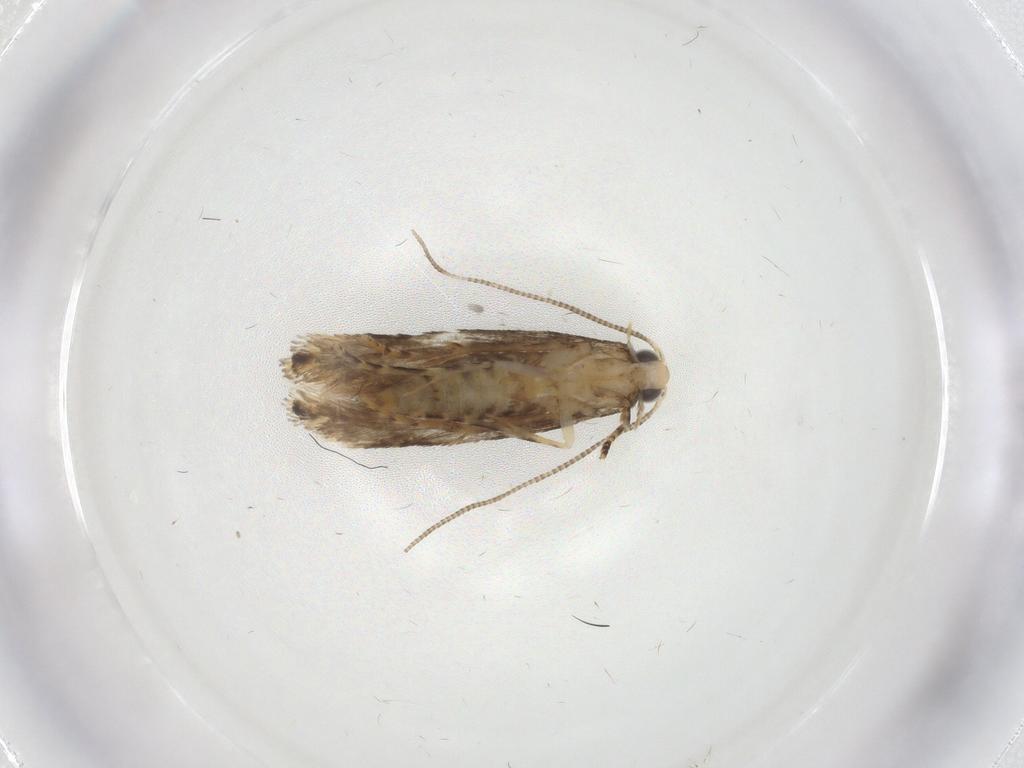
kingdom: Animalia
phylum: Arthropoda
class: Insecta
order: Lepidoptera
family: Tineidae
